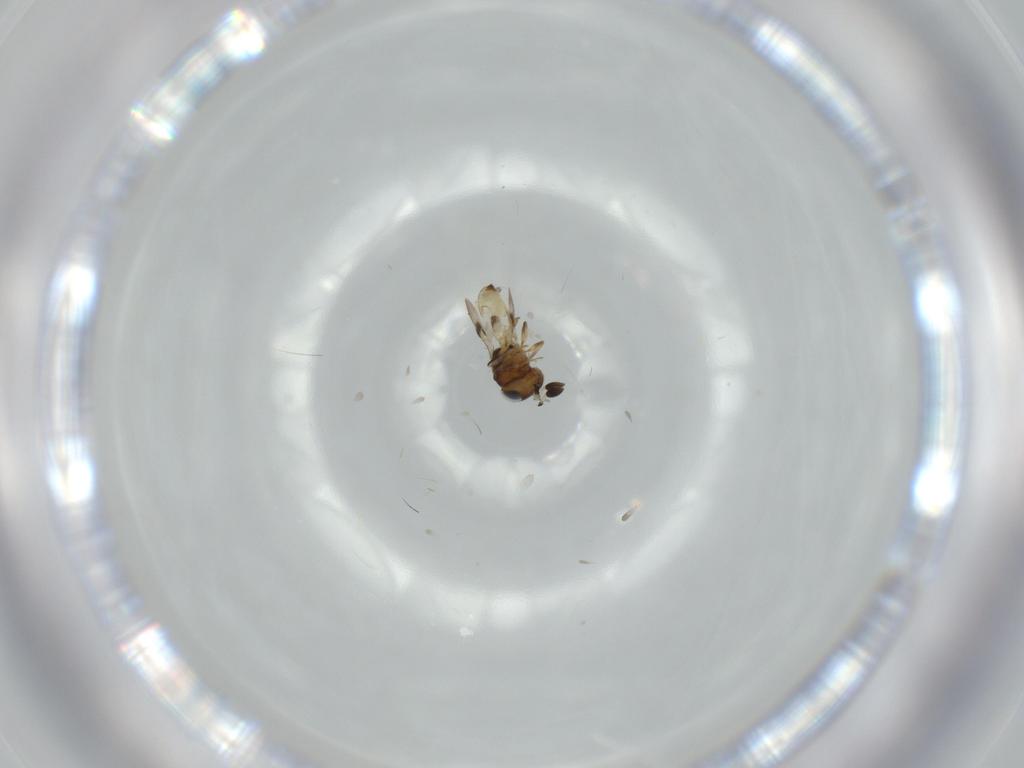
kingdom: Animalia
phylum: Arthropoda
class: Arachnida
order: Araneae
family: Pholcidae
